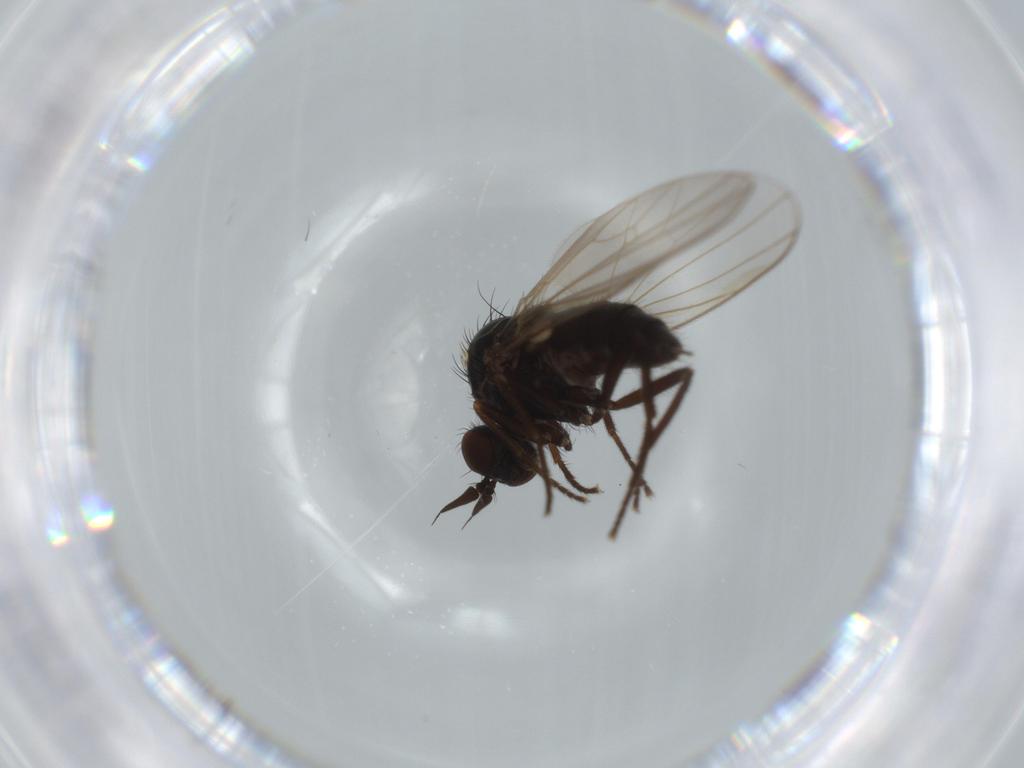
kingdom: Animalia
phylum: Arthropoda
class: Insecta
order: Diptera
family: Dolichopodidae
